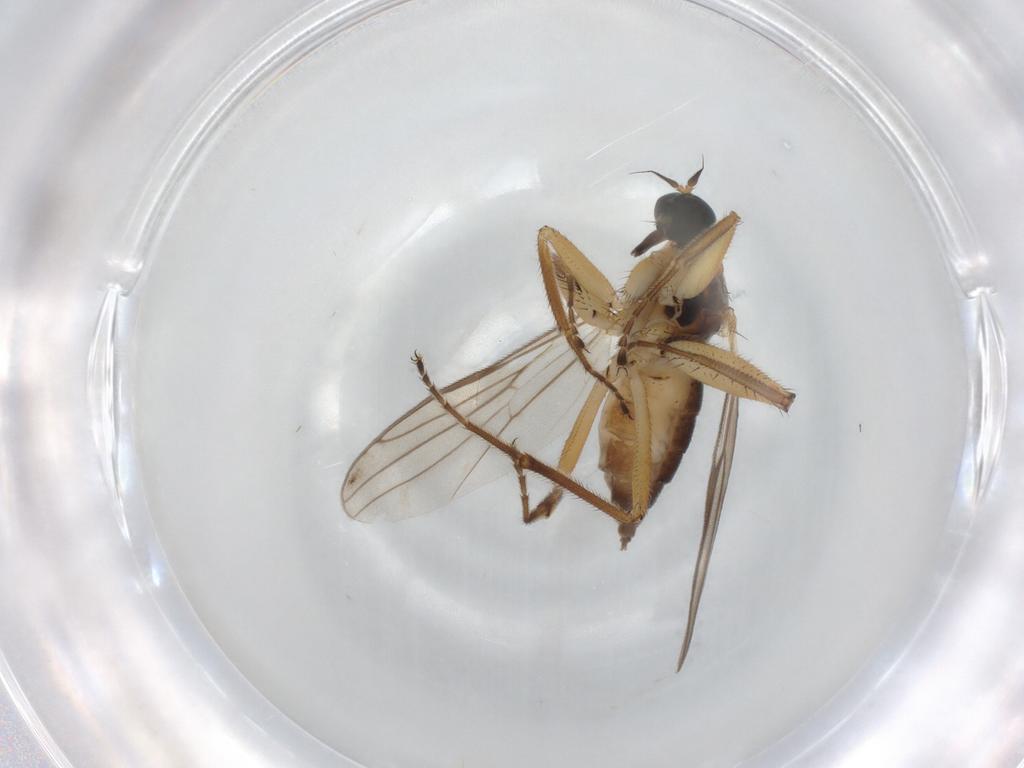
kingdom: Animalia
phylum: Arthropoda
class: Insecta
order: Diptera
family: Hybotidae
